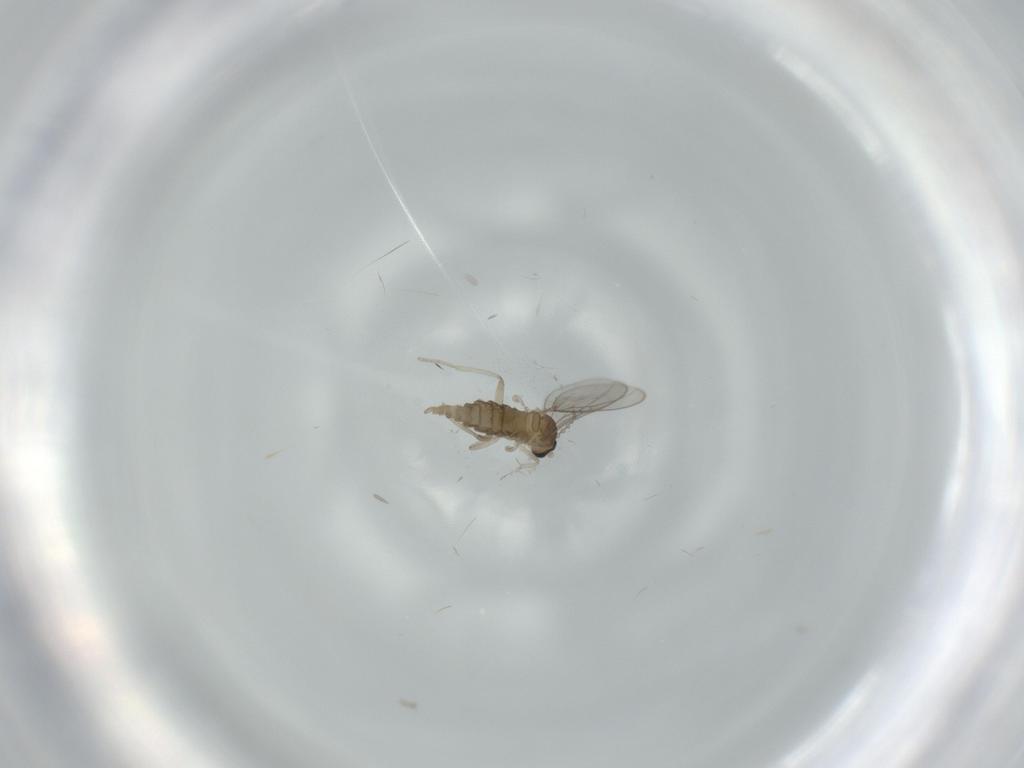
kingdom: Animalia
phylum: Arthropoda
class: Insecta
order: Diptera
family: Cecidomyiidae
